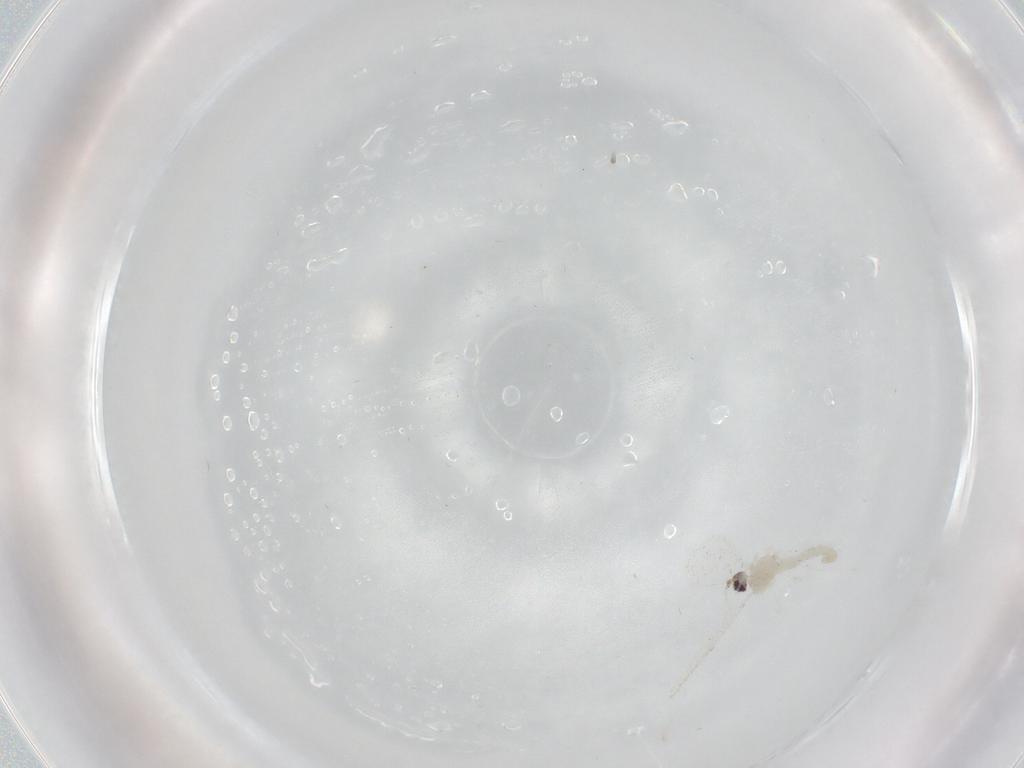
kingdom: Animalia
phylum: Arthropoda
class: Insecta
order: Diptera
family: Cecidomyiidae
